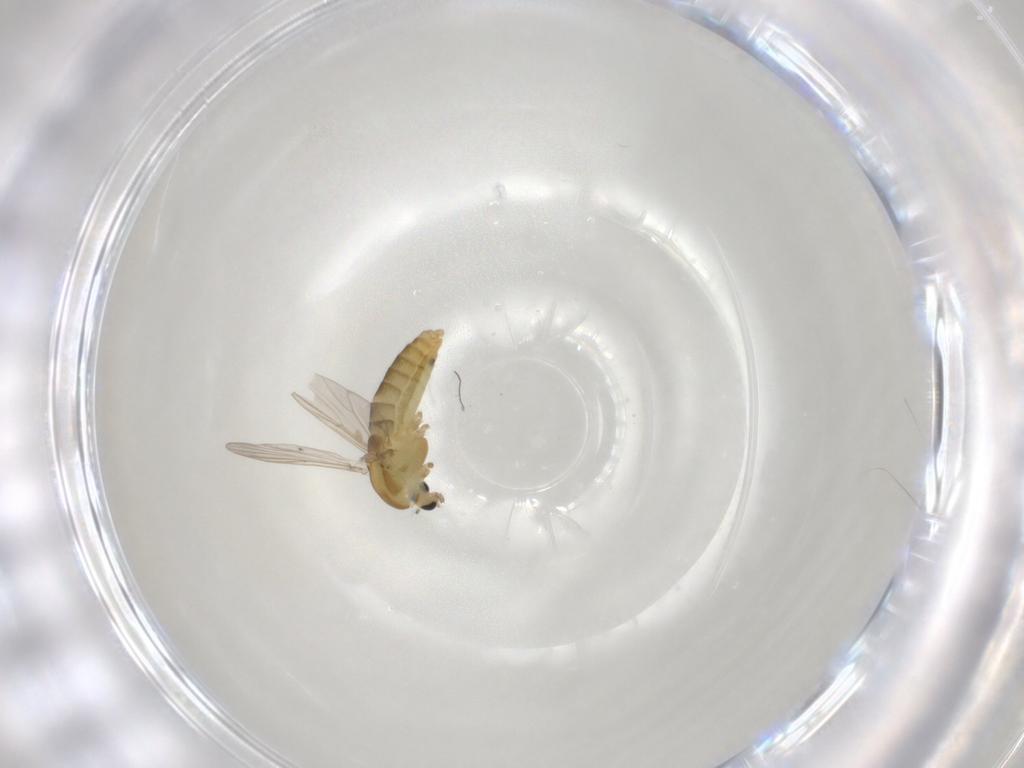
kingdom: Animalia
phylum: Arthropoda
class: Insecta
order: Diptera
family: Chironomidae
